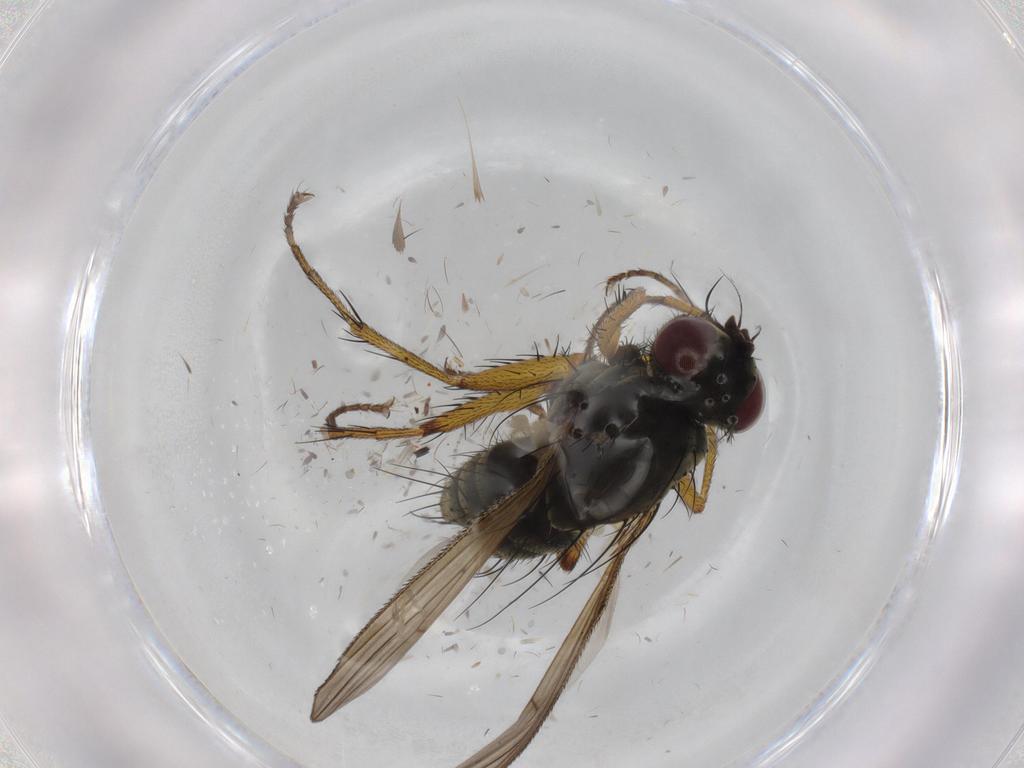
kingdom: Animalia
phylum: Arthropoda
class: Insecta
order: Diptera
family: Muscidae
